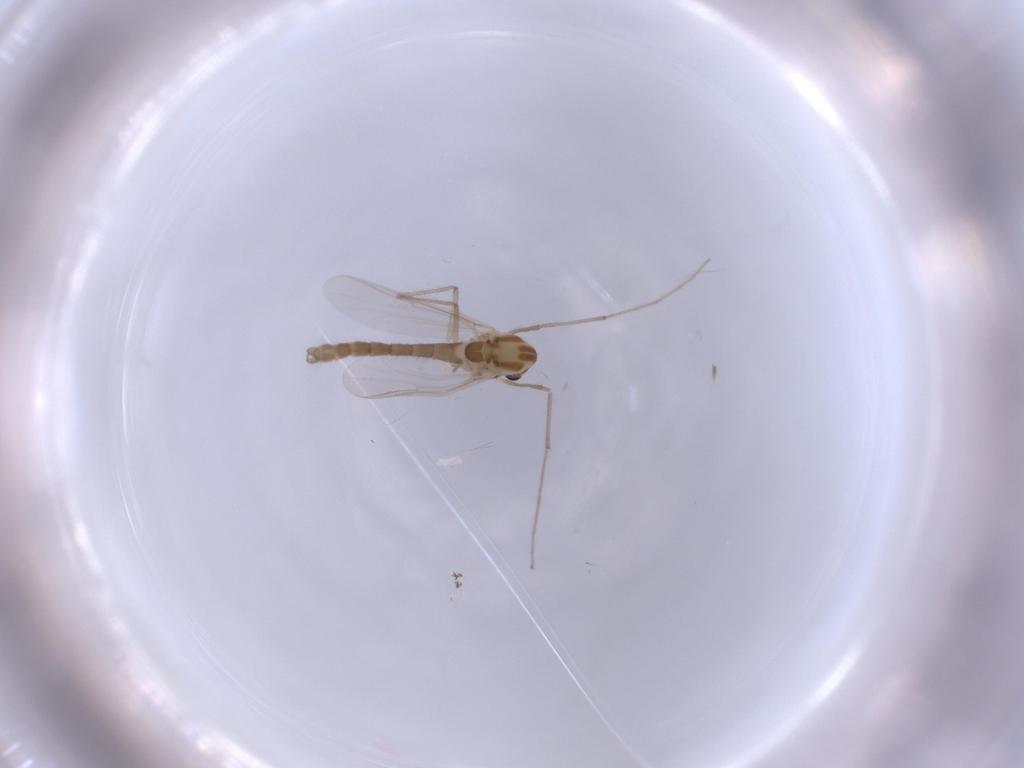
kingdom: Animalia
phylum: Arthropoda
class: Insecta
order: Diptera
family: Chironomidae
